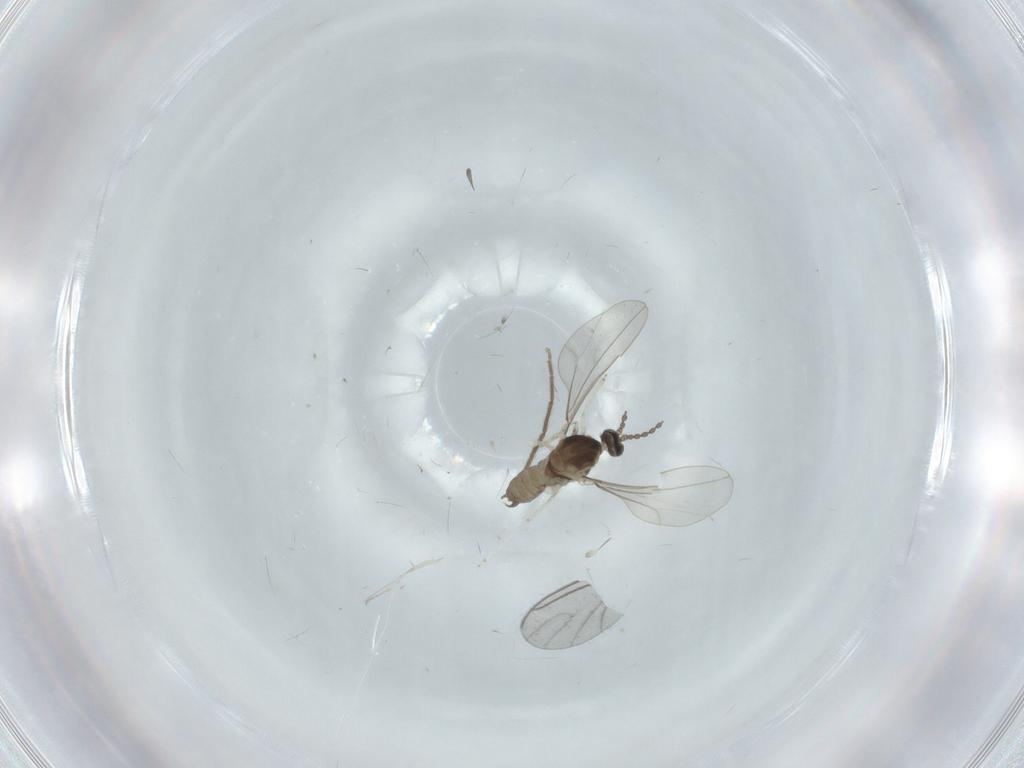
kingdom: Animalia
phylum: Arthropoda
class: Insecta
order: Diptera
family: Cecidomyiidae
